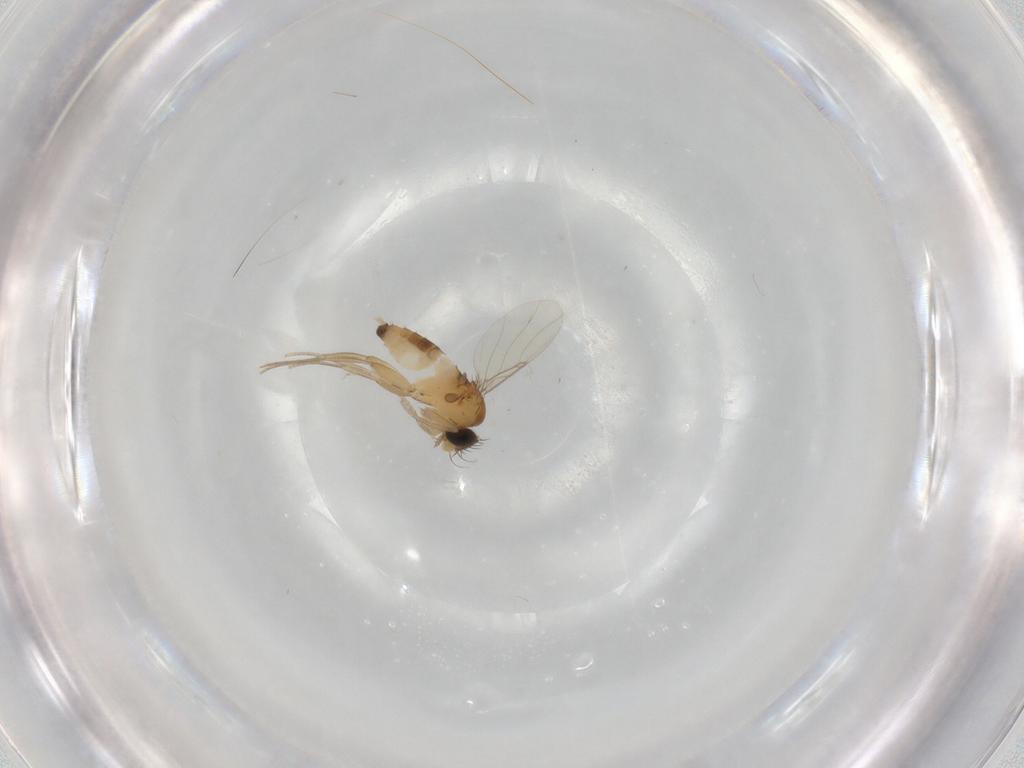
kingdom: Animalia
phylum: Arthropoda
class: Insecta
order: Diptera
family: Phoridae
